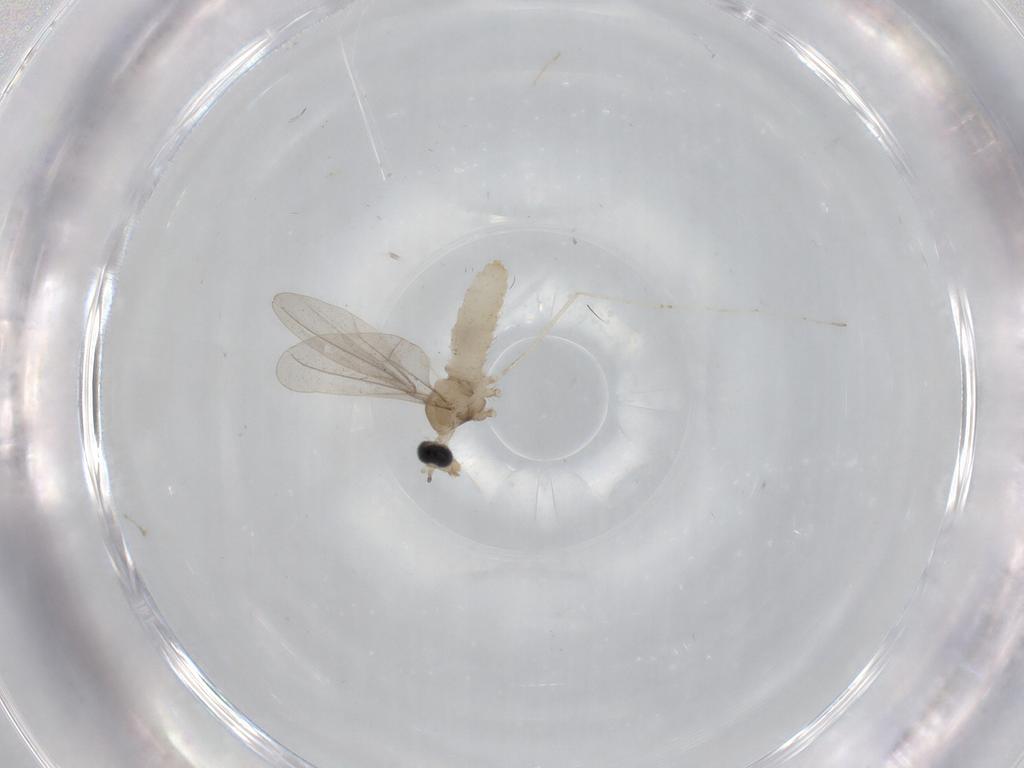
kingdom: Animalia
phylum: Arthropoda
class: Insecta
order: Diptera
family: Cecidomyiidae
